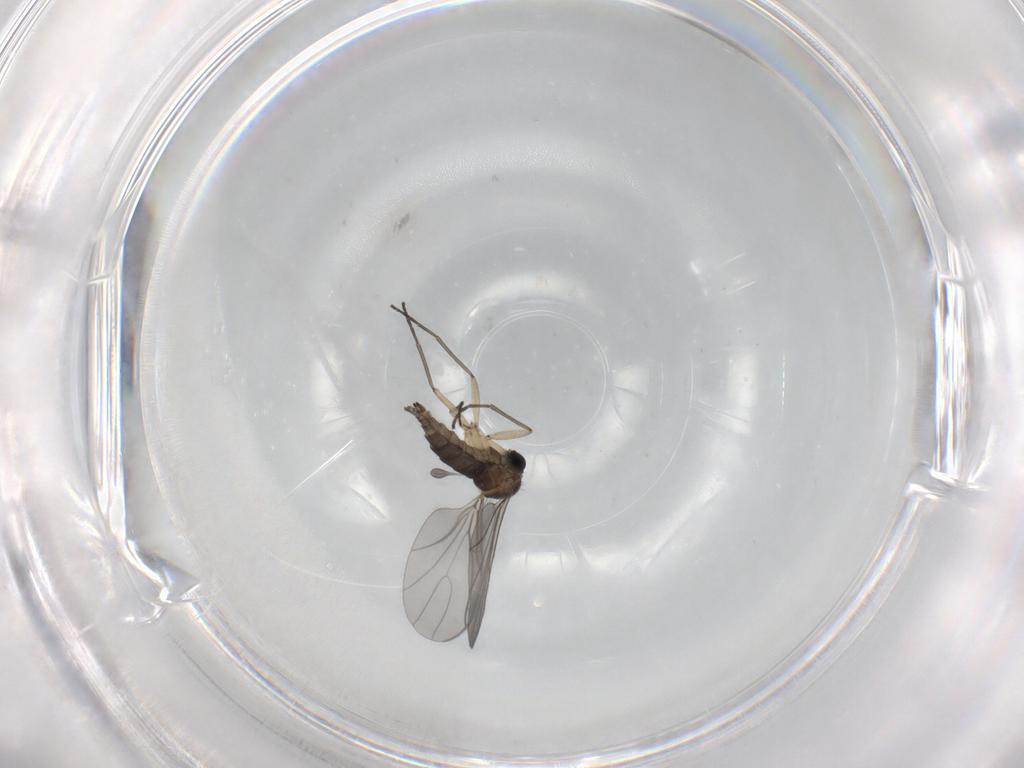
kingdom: Animalia
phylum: Arthropoda
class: Insecta
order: Diptera
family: Sciaridae
